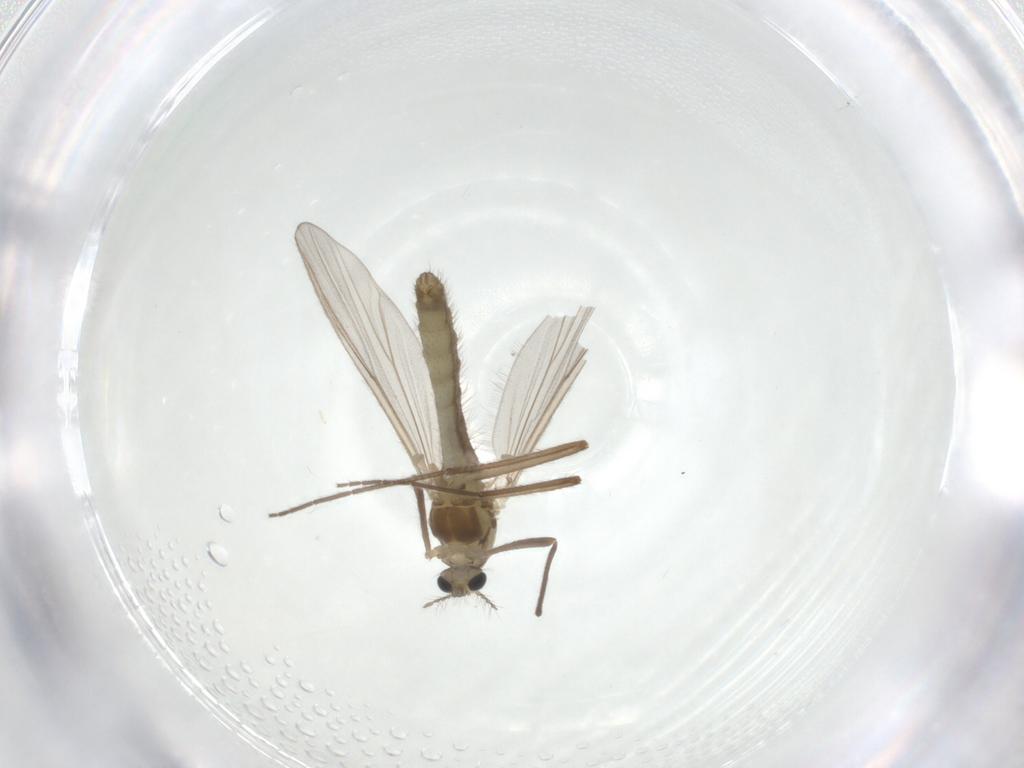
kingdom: Animalia
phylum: Arthropoda
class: Insecta
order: Diptera
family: Chironomidae
